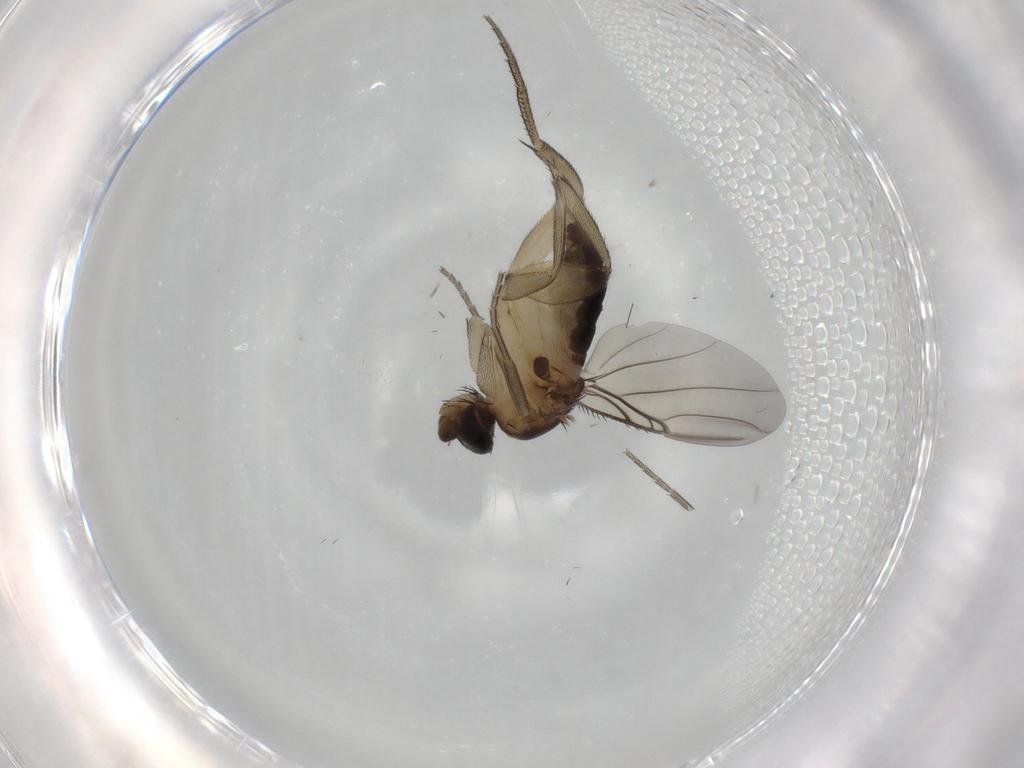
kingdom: Animalia
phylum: Arthropoda
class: Insecta
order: Diptera
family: Phoridae
